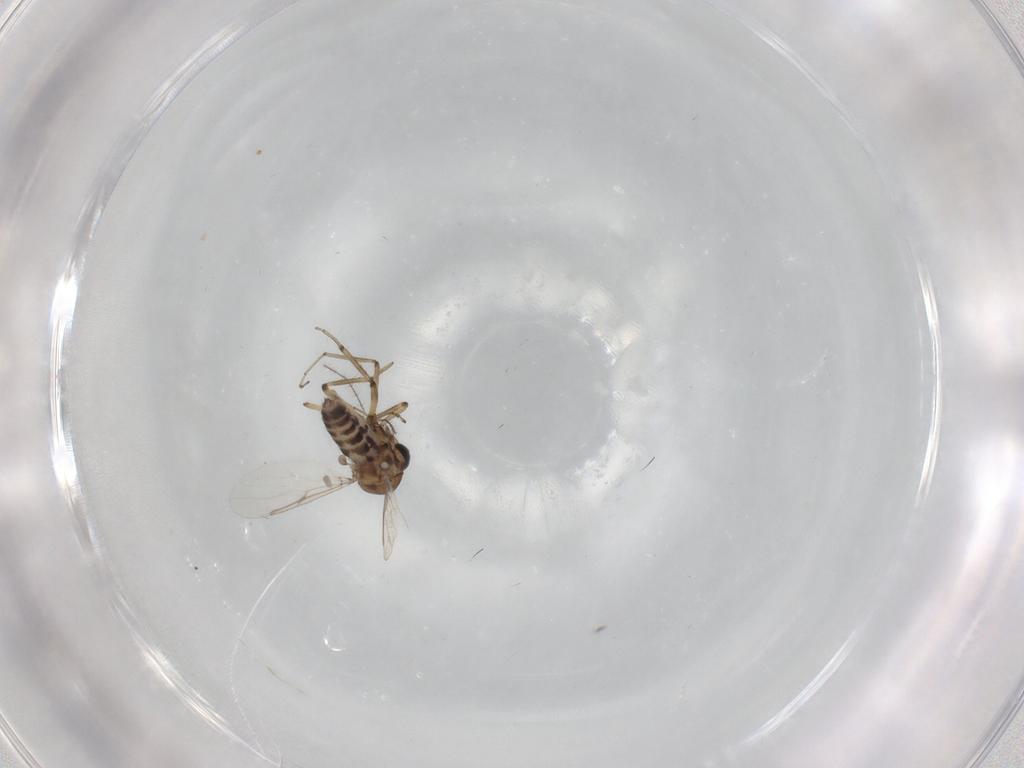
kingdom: Animalia
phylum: Arthropoda
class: Insecta
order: Diptera
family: Ceratopogonidae
